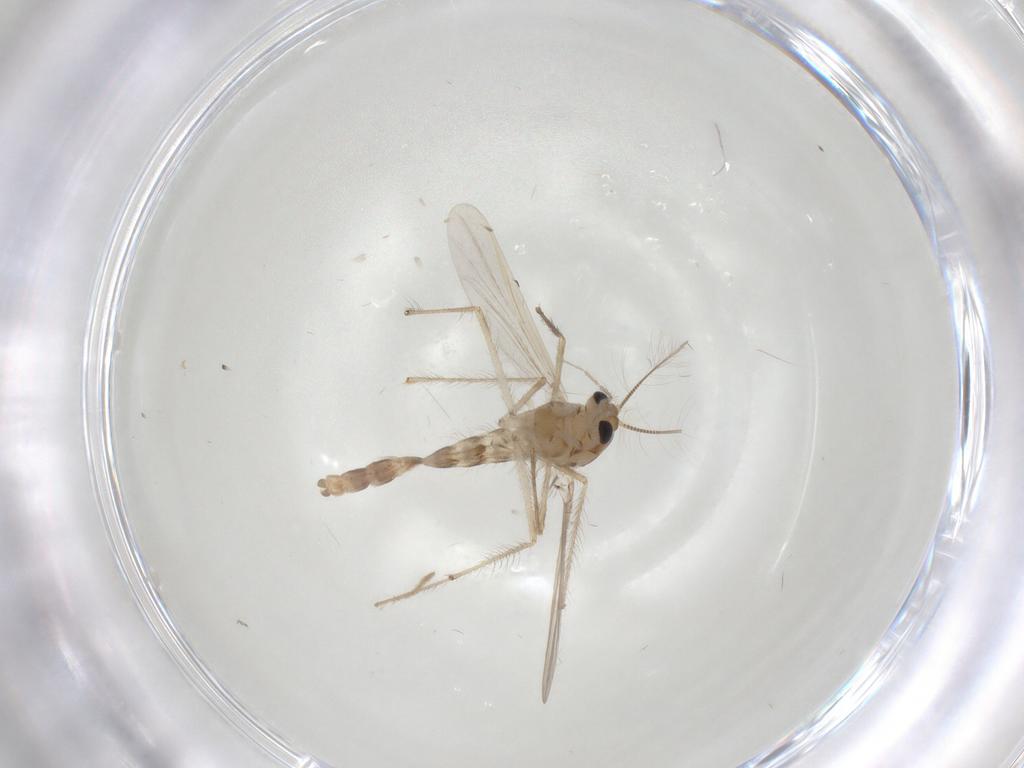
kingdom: Animalia
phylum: Arthropoda
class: Insecta
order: Diptera
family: Chironomidae
